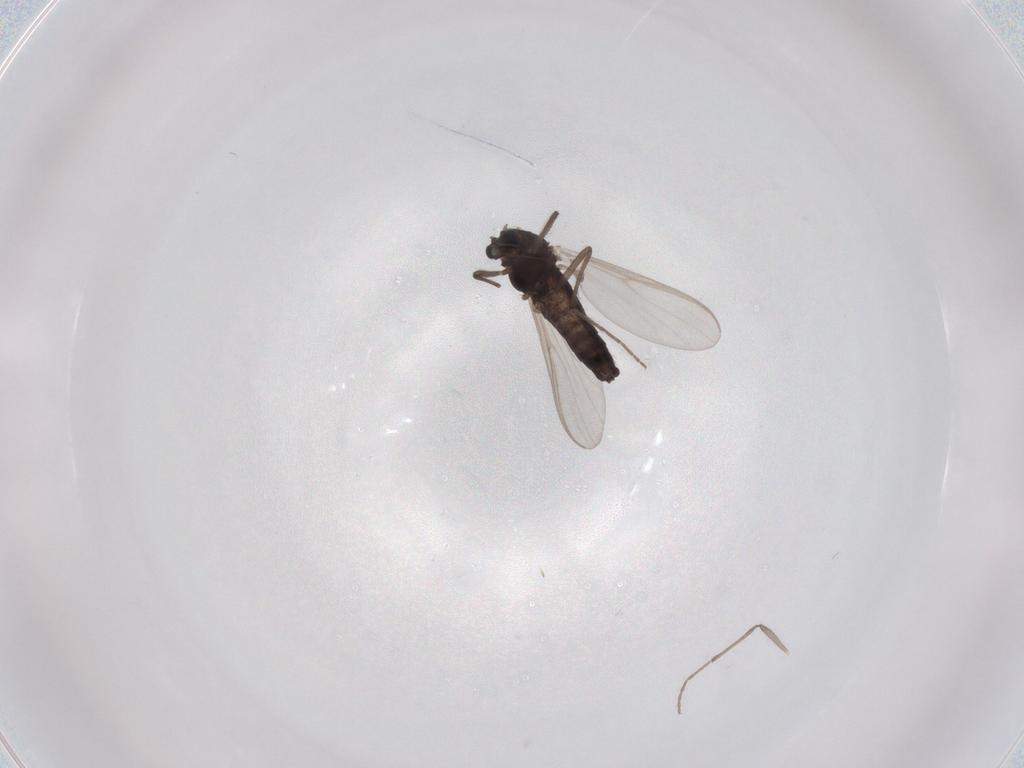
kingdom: Animalia
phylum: Arthropoda
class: Insecta
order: Diptera
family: Chironomidae
